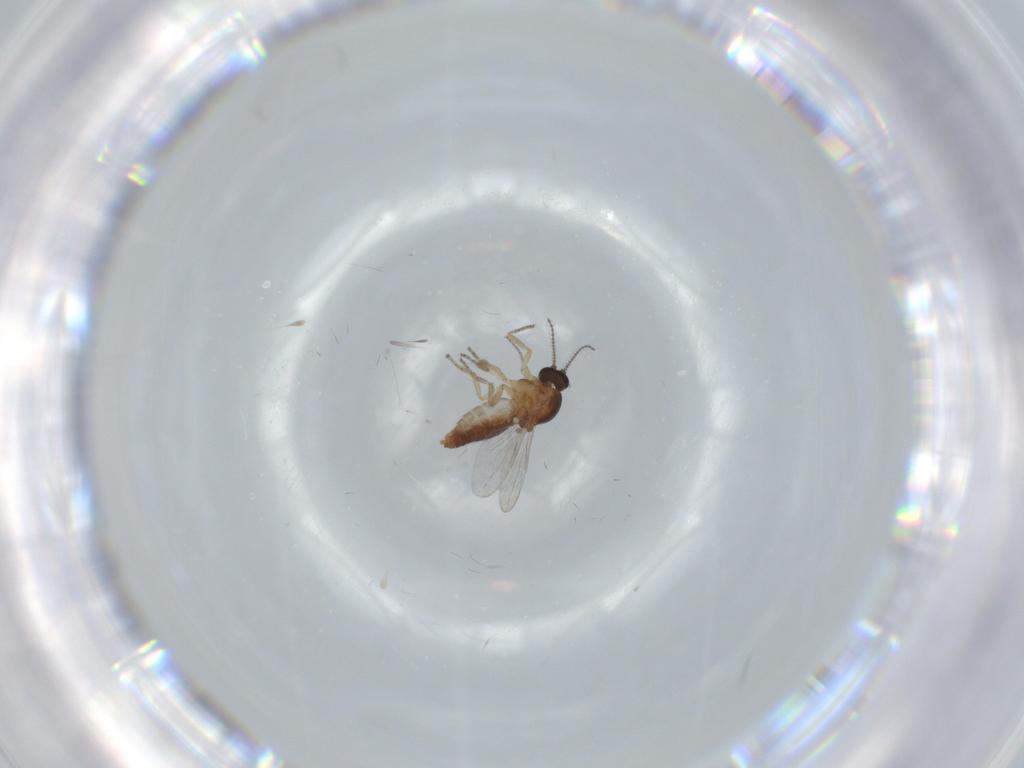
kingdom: Animalia
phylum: Arthropoda
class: Insecta
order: Diptera
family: Ceratopogonidae
